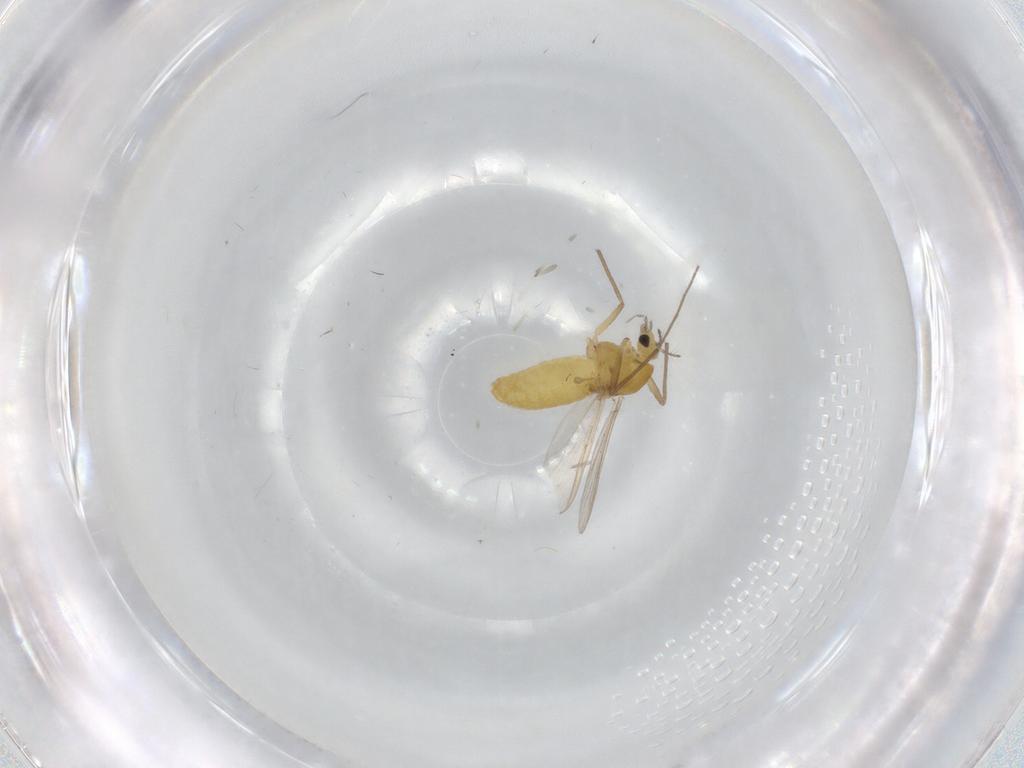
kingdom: Animalia
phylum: Arthropoda
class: Insecta
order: Diptera
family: Chironomidae
